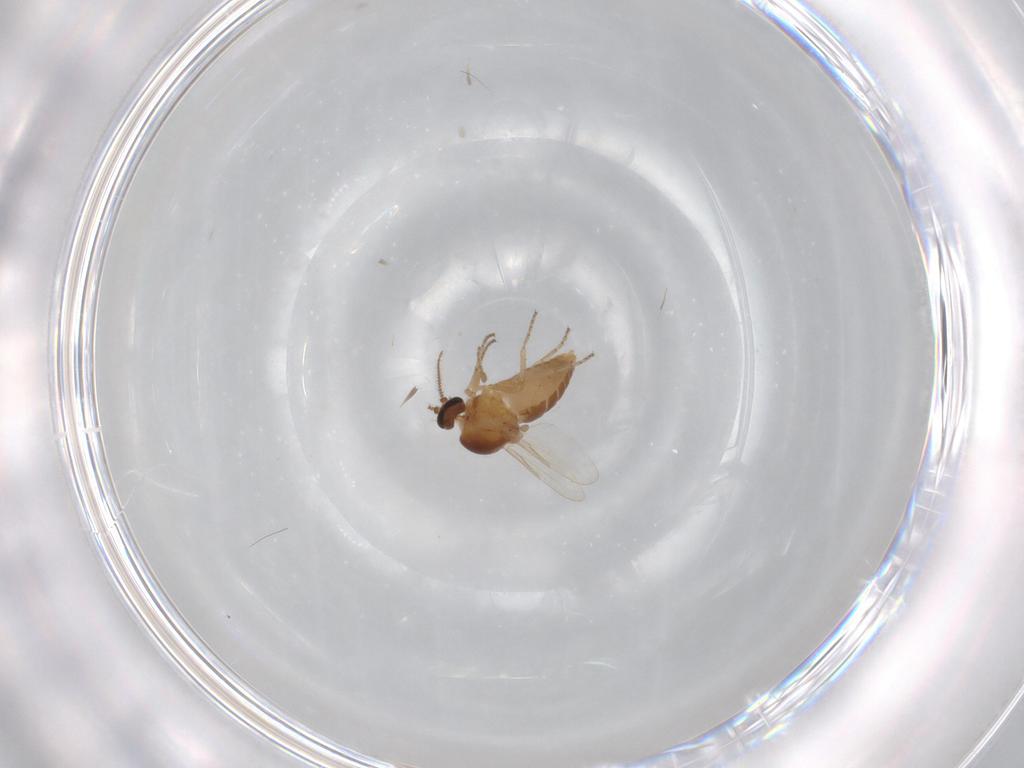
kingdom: Animalia
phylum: Arthropoda
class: Insecta
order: Diptera
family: Ceratopogonidae
